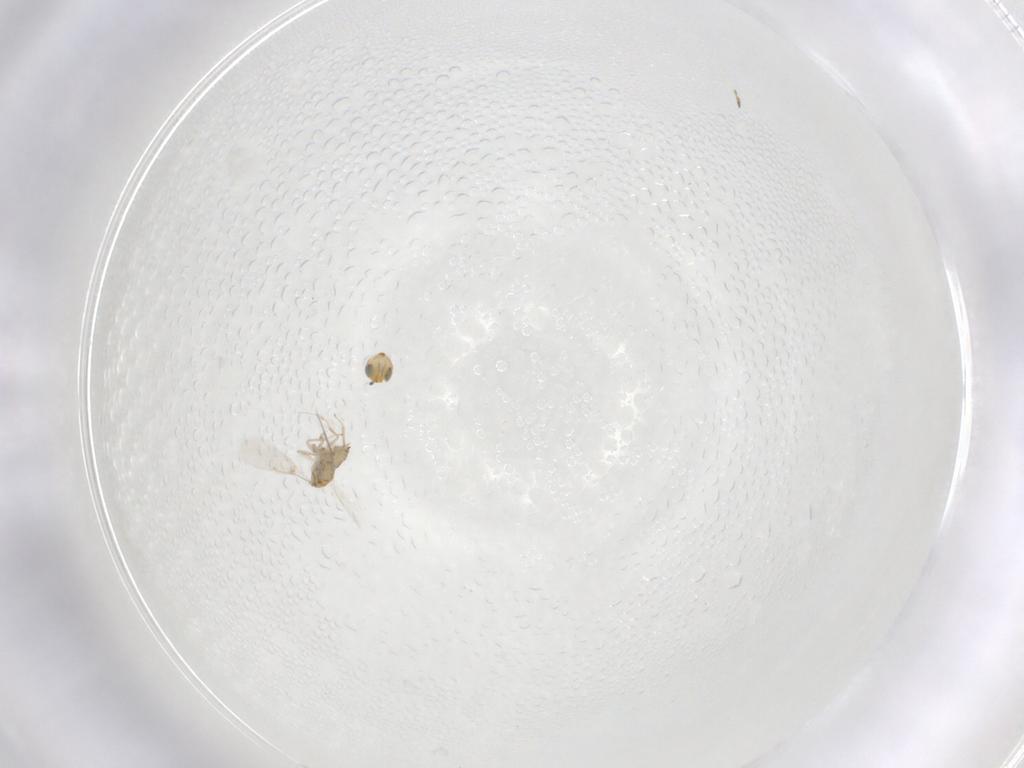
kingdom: Animalia
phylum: Arthropoda
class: Insecta
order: Hymenoptera
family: Aphelinidae
